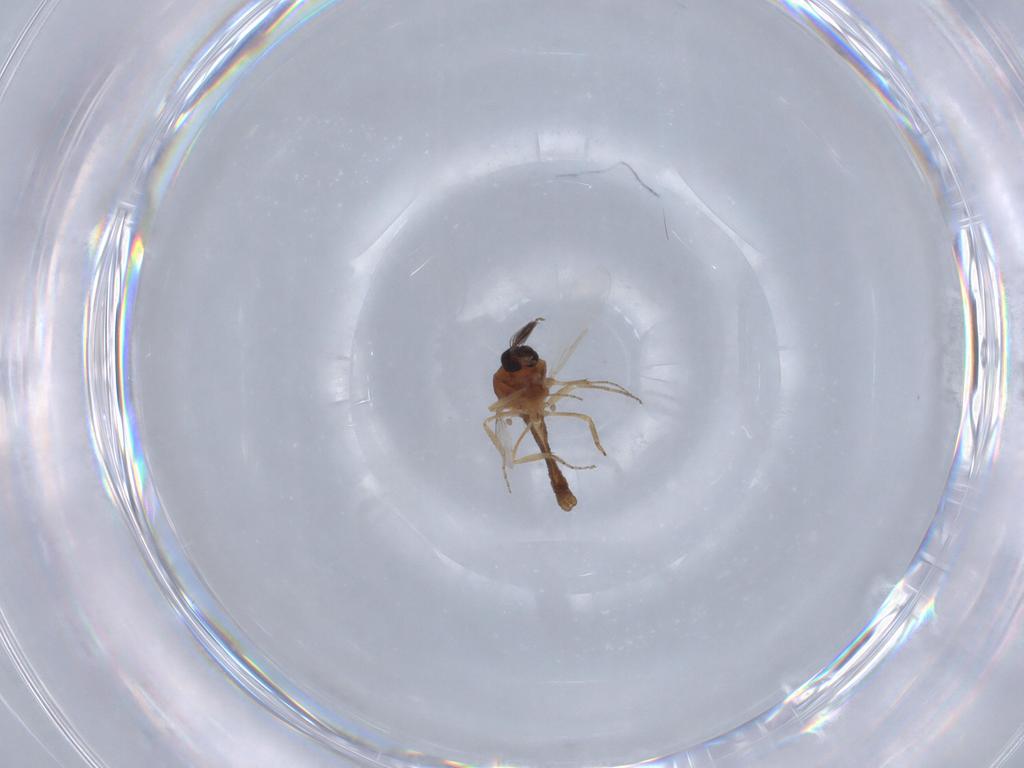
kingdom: Animalia
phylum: Arthropoda
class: Insecta
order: Diptera
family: Ceratopogonidae
